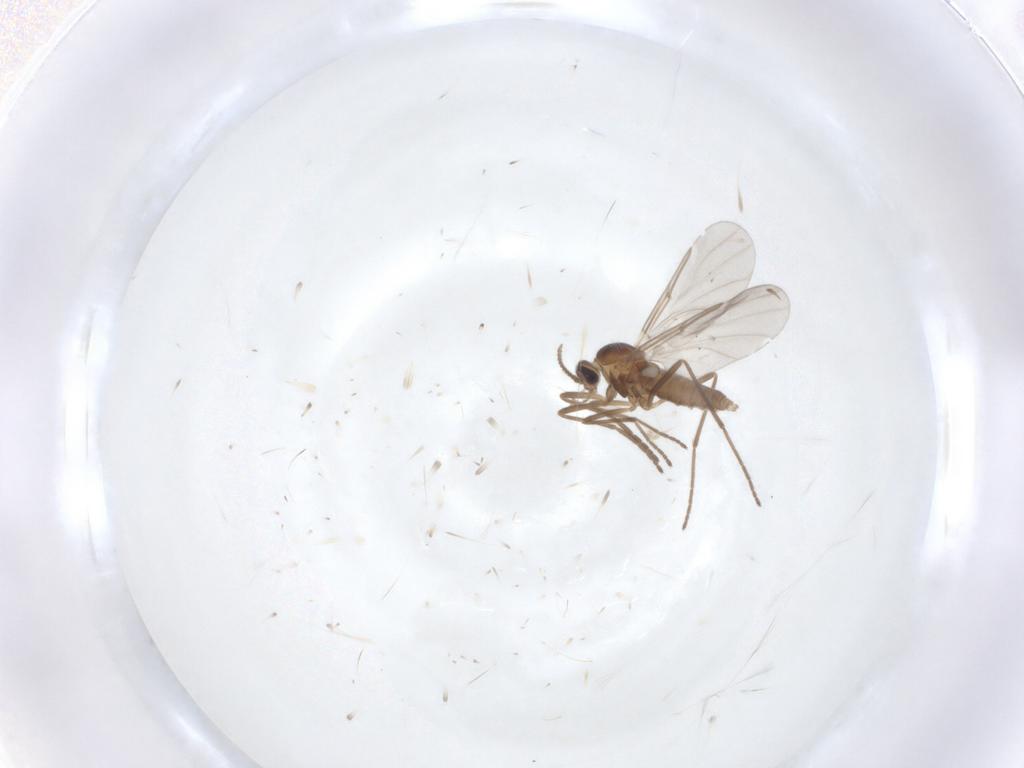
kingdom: Animalia
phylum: Arthropoda
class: Insecta
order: Diptera
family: Cecidomyiidae
